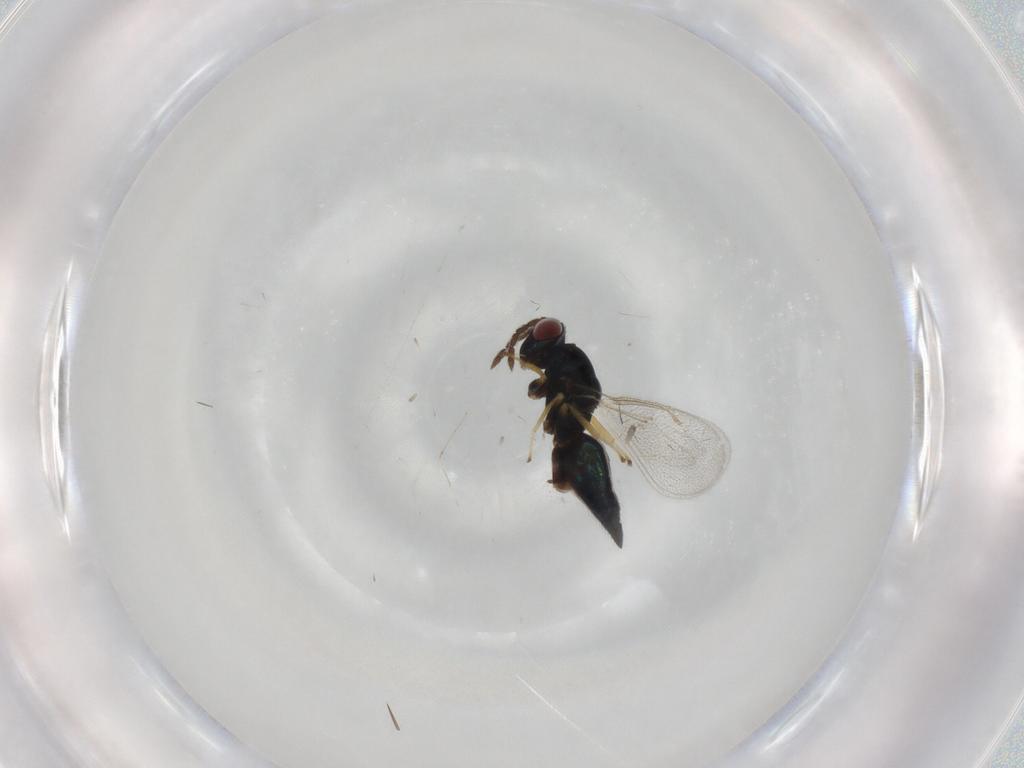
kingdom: Animalia
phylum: Arthropoda
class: Insecta
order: Hymenoptera
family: Eulophidae
